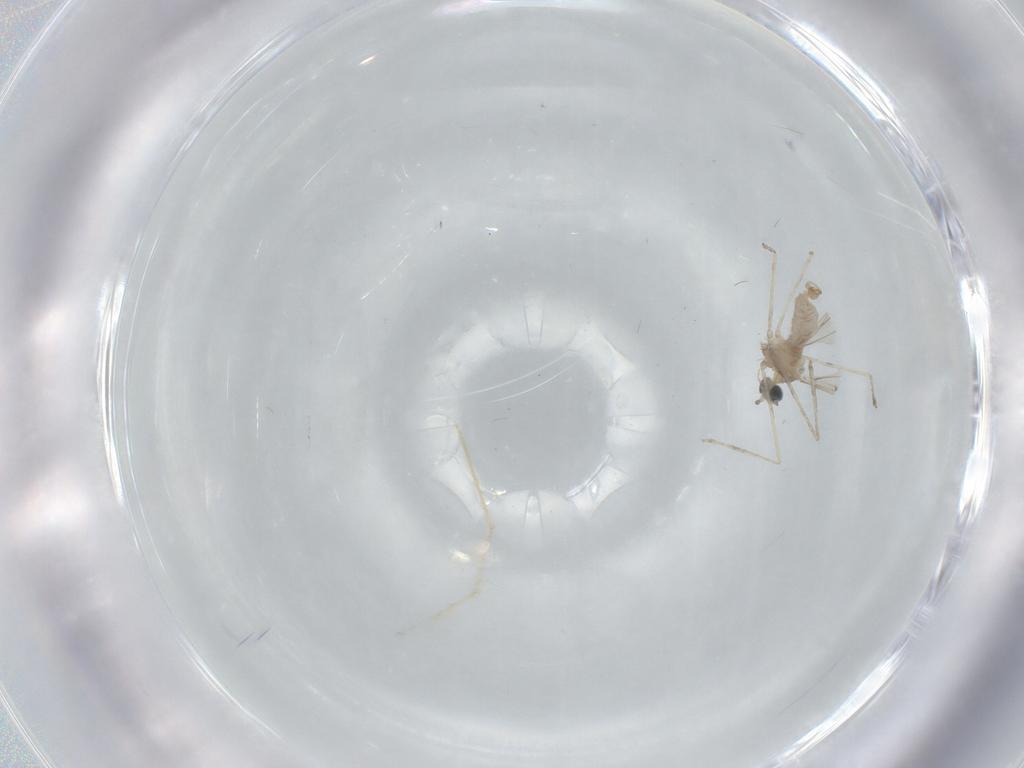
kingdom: Animalia
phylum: Arthropoda
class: Insecta
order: Diptera
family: Cecidomyiidae
